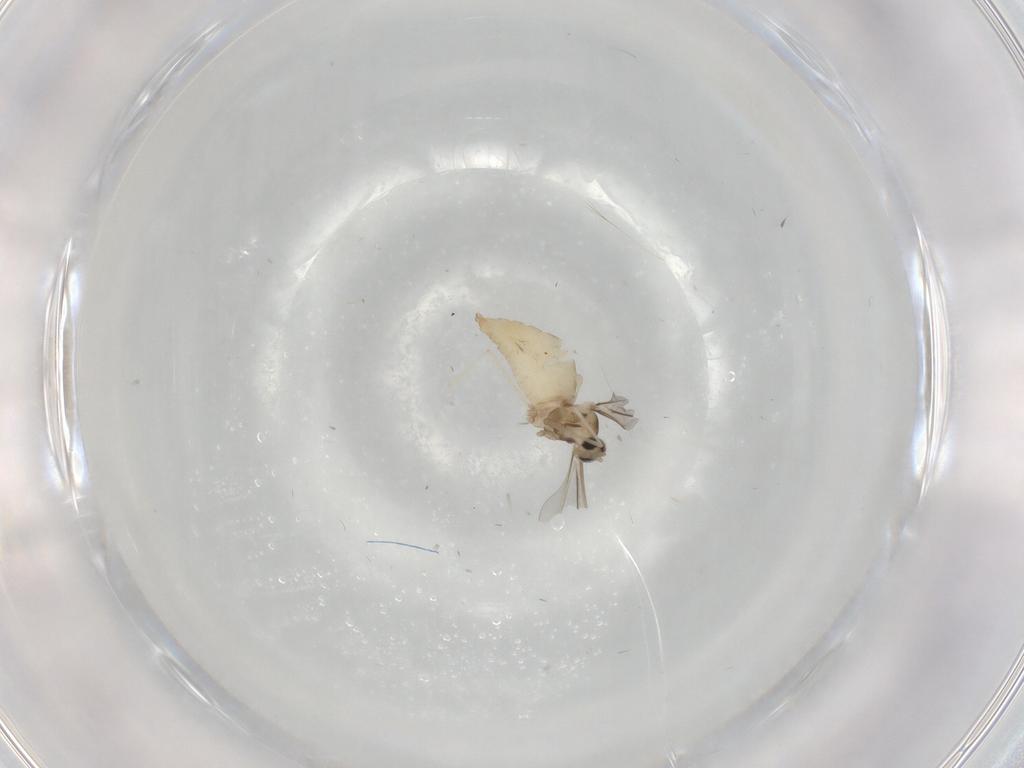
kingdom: Animalia
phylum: Arthropoda
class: Insecta
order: Diptera
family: Cecidomyiidae
